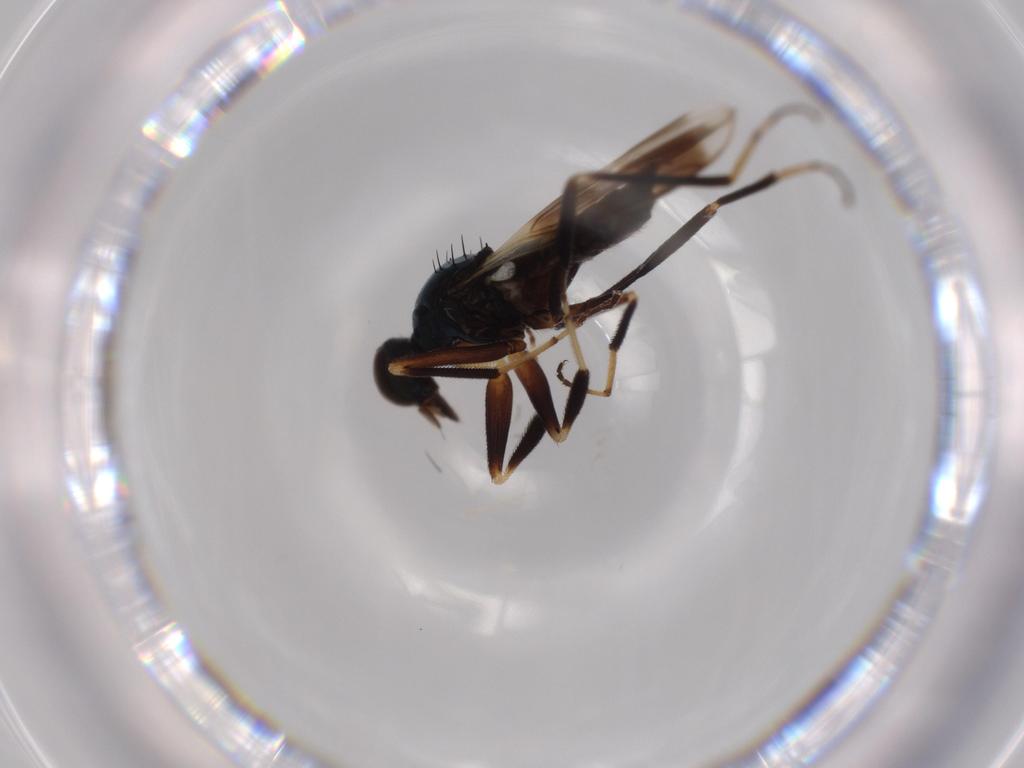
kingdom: Animalia
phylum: Arthropoda
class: Insecta
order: Diptera
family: Hybotidae
